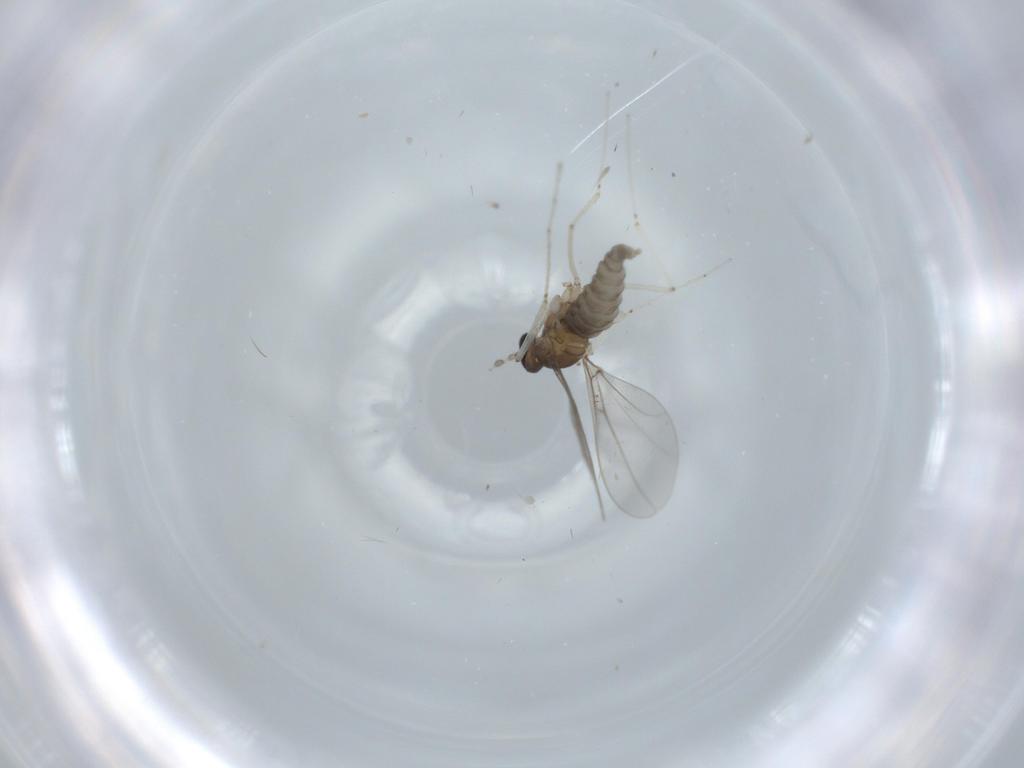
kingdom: Animalia
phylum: Arthropoda
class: Insecta
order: Diptera
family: Cecidomyiidae
